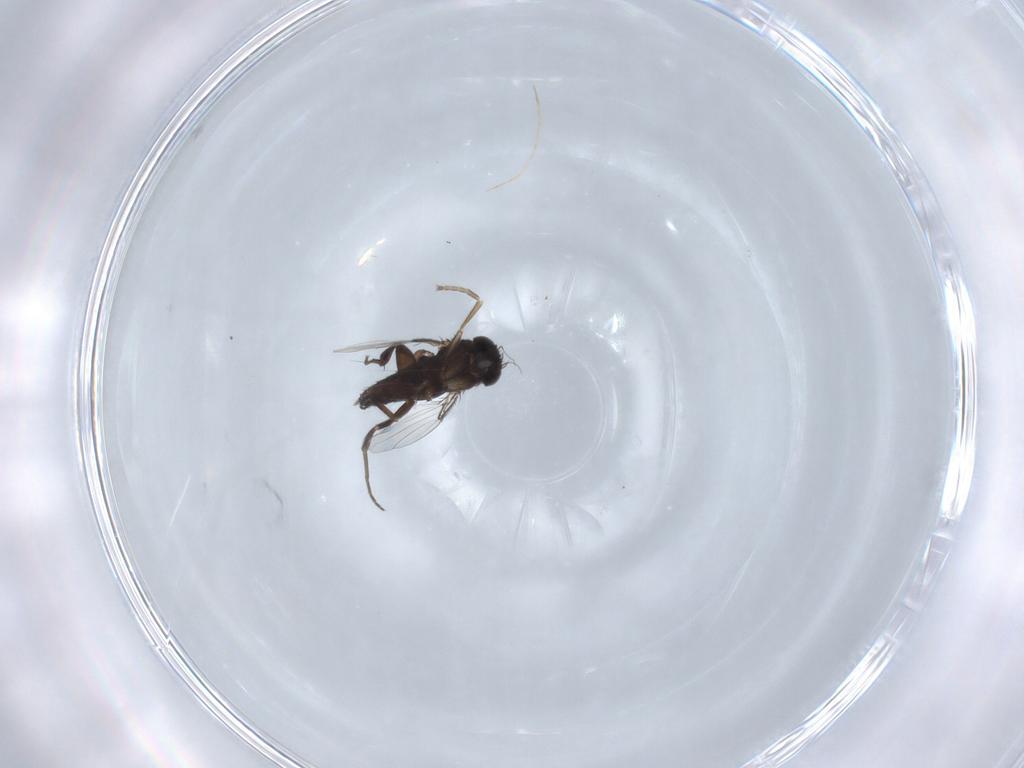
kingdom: Animalia
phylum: Arthropoda
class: Insecta
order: Diptera
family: Phoridae
